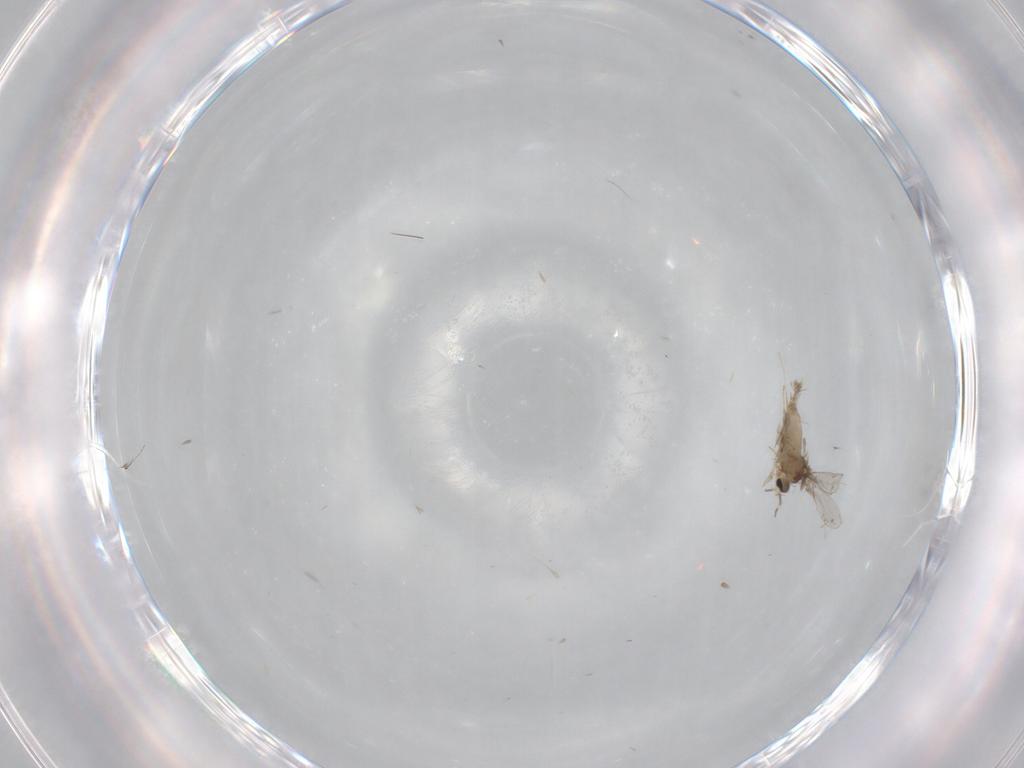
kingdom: Animalia
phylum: Arthropoda
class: Insecta
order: Diptera
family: Cecidomyiidae
